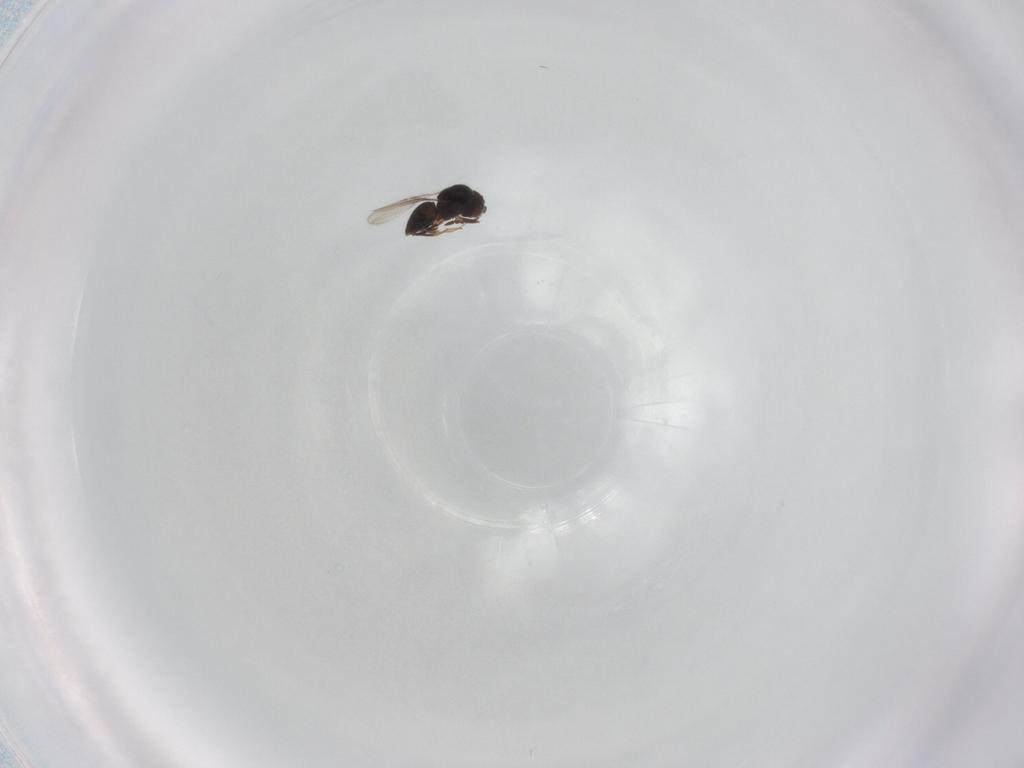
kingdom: Animalia
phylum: Arthropoda
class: Insecta
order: Hymenoptera
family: Apidae
